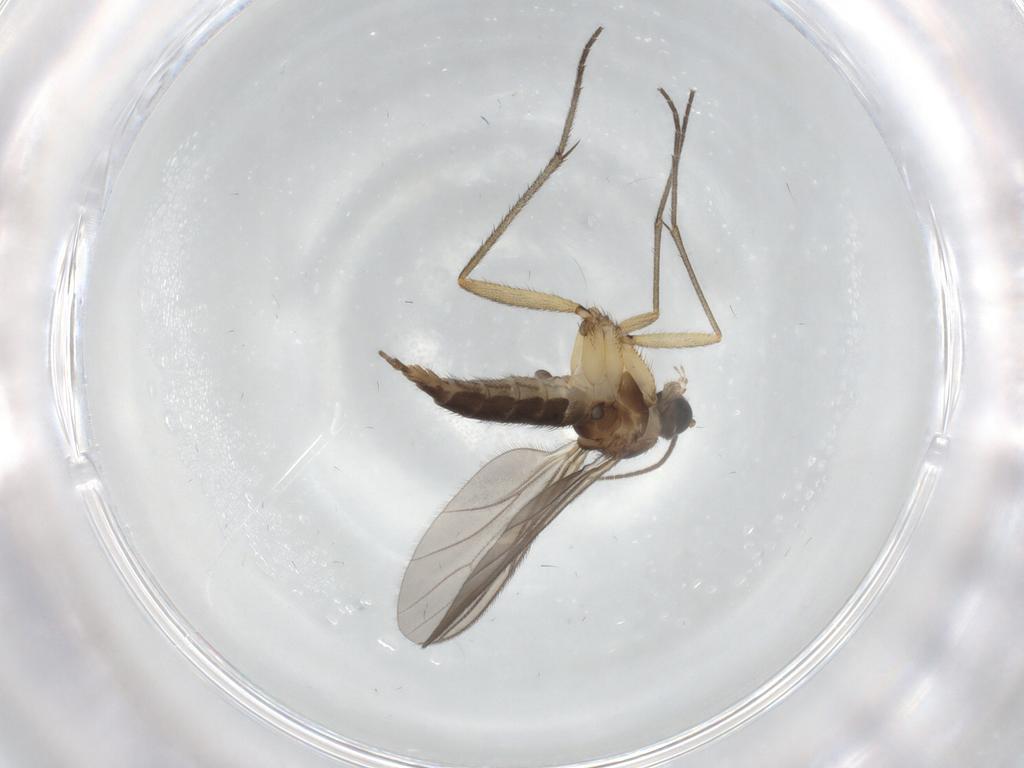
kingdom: Animalia
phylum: Arthropoda
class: Insecta
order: Diptera
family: Sciaridae
